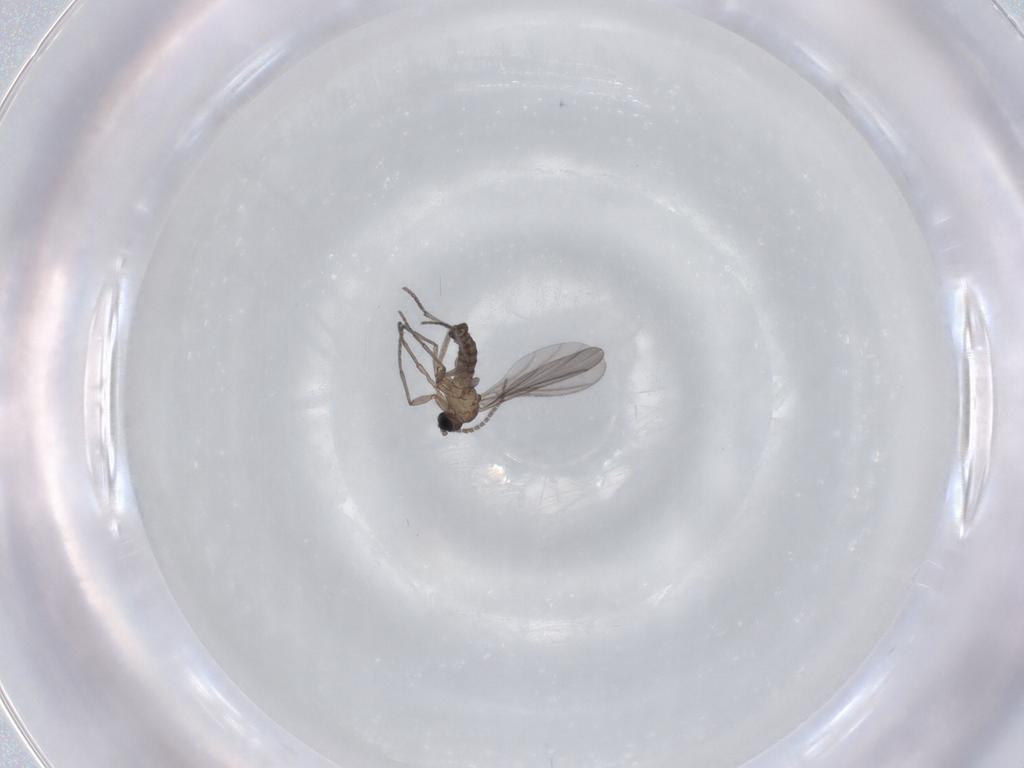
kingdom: Animalia
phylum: Arthropoda
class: Insecta
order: Diptera
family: Sciaridae
